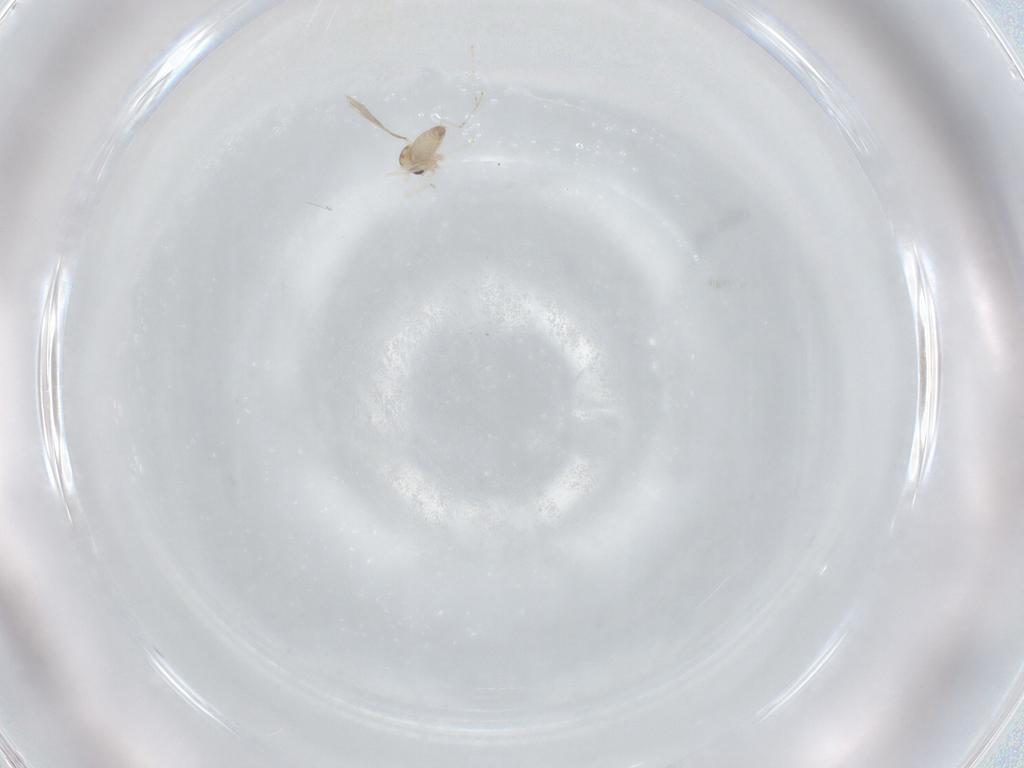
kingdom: Animalia
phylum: Arthropoda
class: Insecta
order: Diptera
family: Cecidomyiidae
